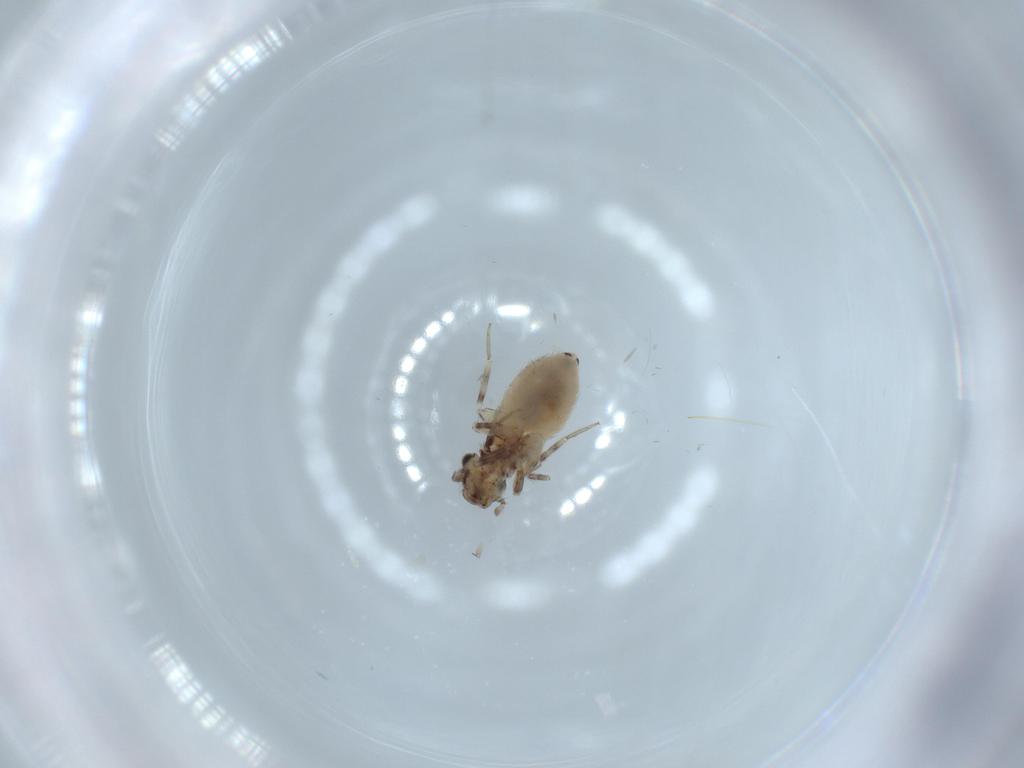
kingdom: Animalia
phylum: Arthropoda
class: Insecta
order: Psocodea
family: Lepidopsocidae
